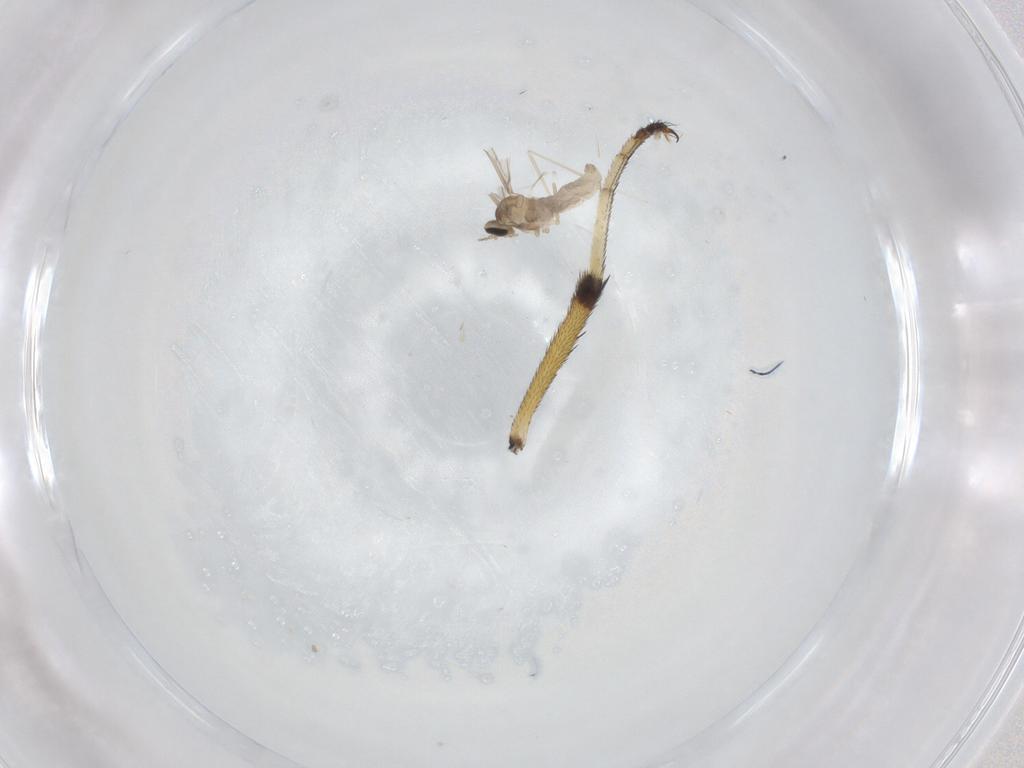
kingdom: Animalia
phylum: Arthropoda
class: Insecta
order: Diptera
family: Cecidomyiidae
